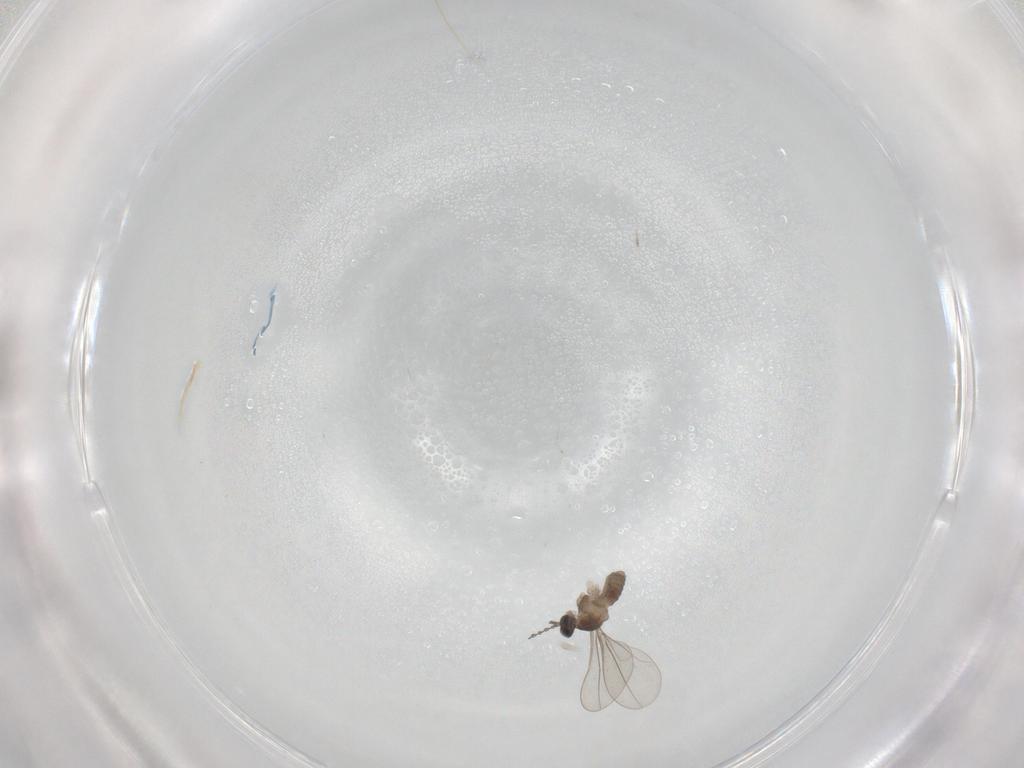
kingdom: Animalia
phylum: Arthropoda
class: Insecta
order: Diptera
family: Cecidomyiidae
